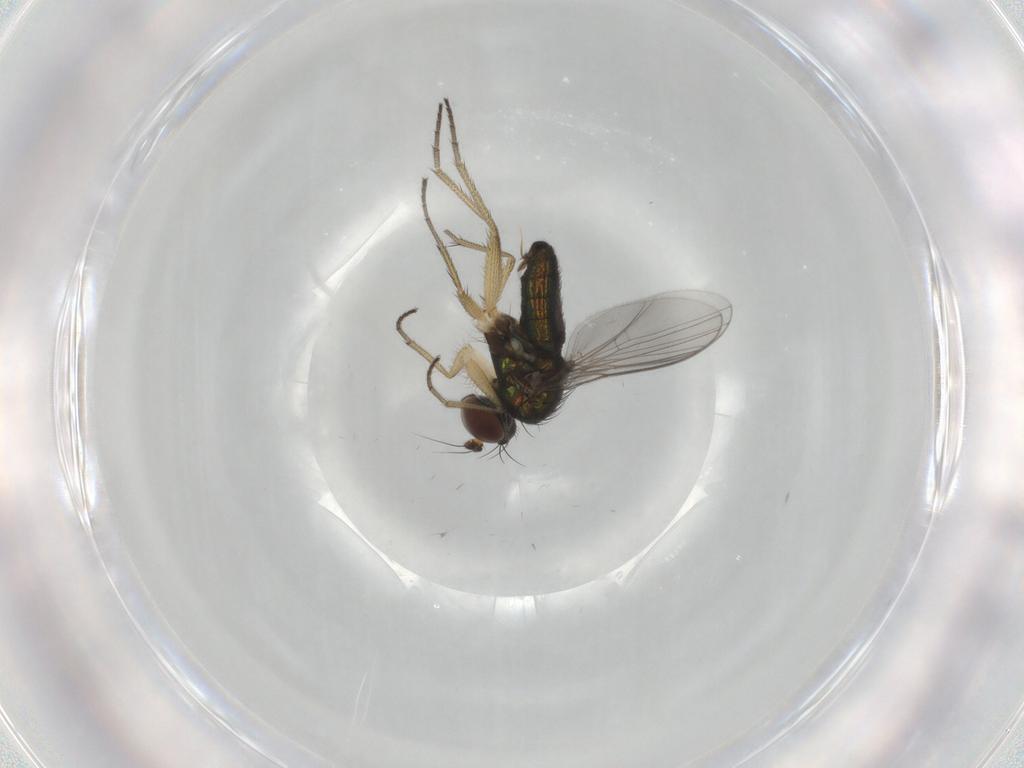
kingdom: Animalia
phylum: Arthropoda
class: Insecta
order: Diptera
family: Dolichopodidae
